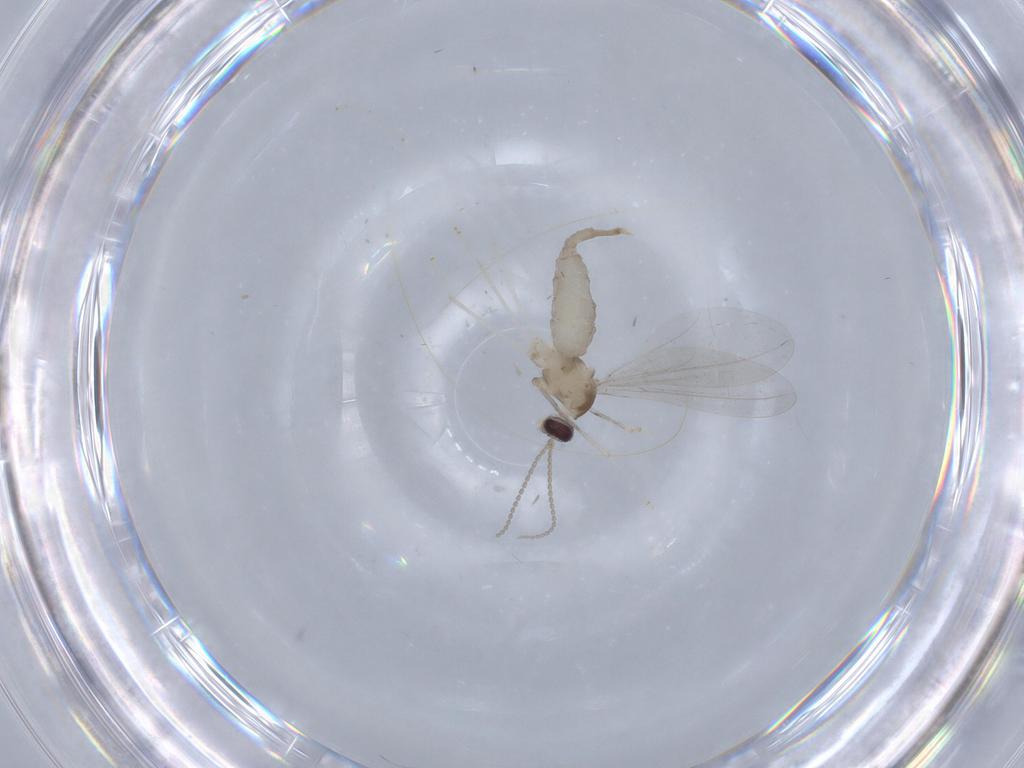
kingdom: Animalia
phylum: Arthropoda
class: Insecta
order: Diptera
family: Cecidomyiidae
